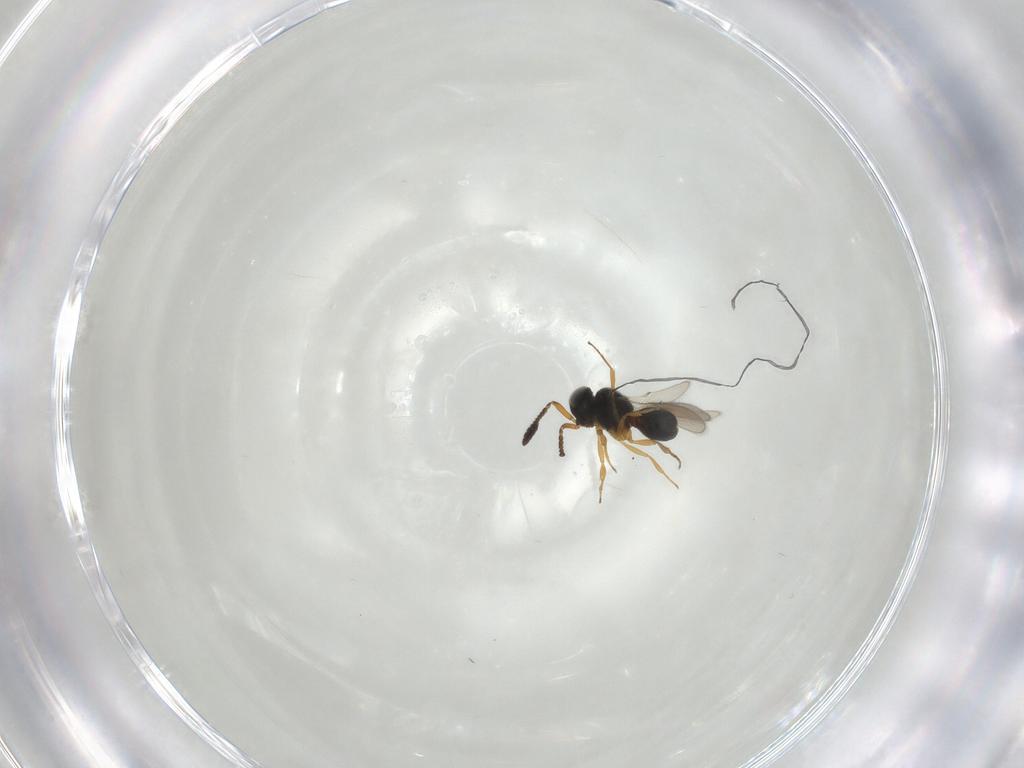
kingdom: Animalia
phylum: Arthropoda
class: Insecta
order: Hymenoptera
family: Scelionidae
